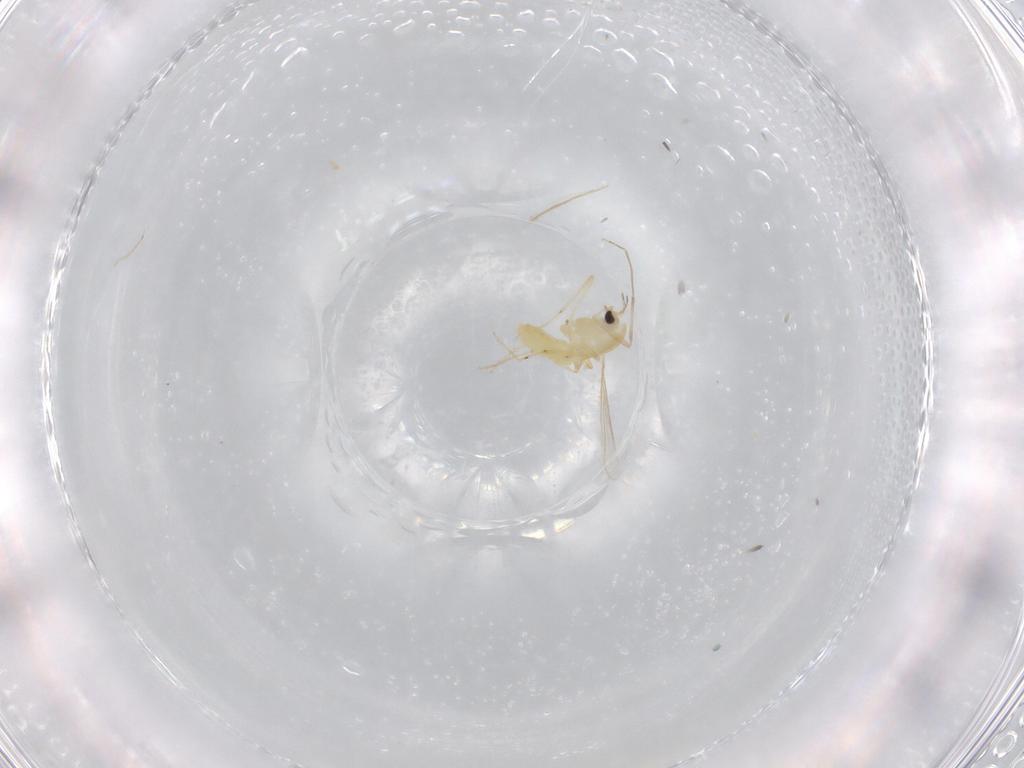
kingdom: Animalia
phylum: Arthropoda
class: Insecta
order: Diptera
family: Chironomidae
